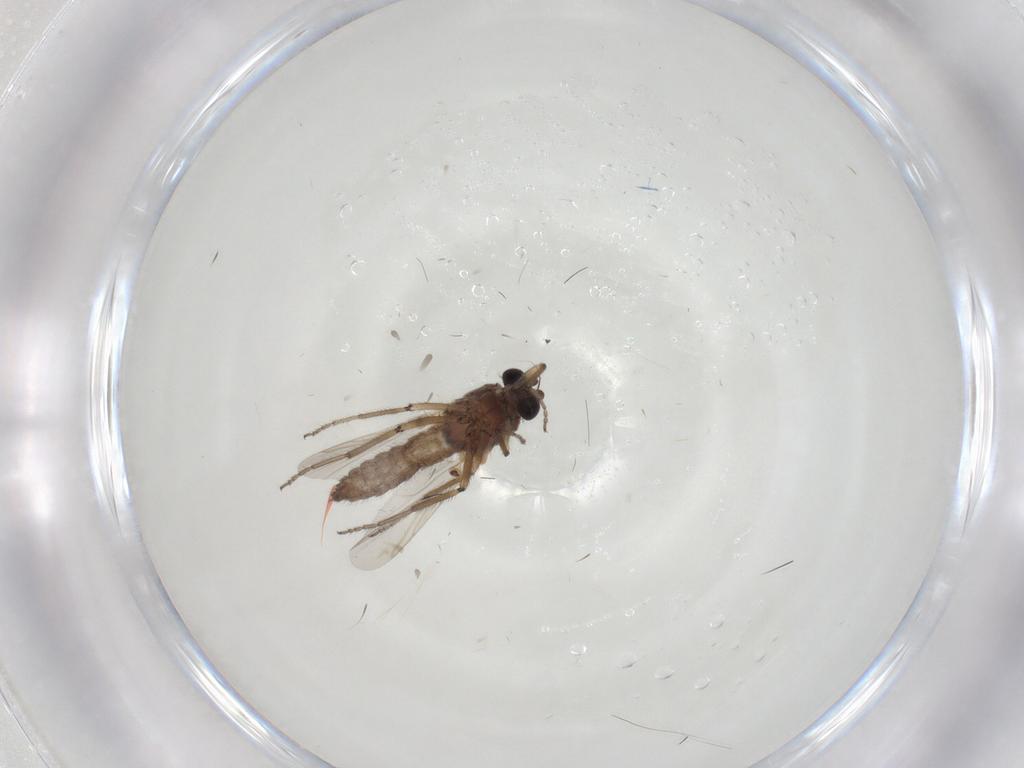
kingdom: Animalia
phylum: Arthropoda
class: Insecta
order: Diptera
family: Ceratopogonidae
